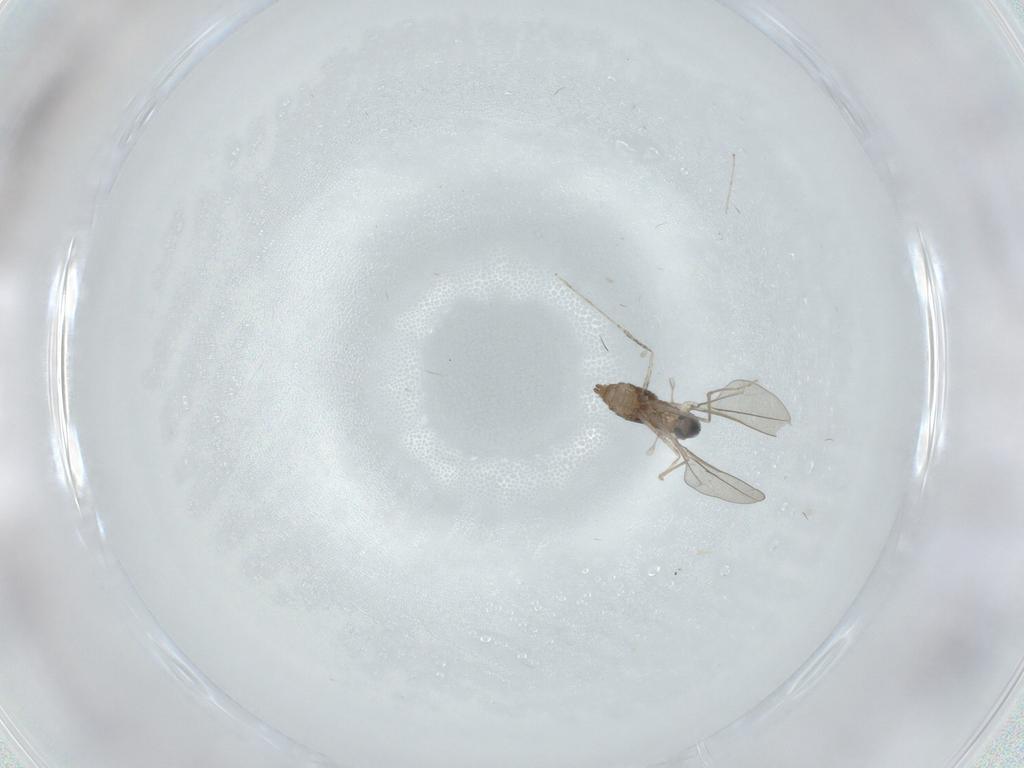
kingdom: Animalia
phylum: Arthropoda
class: Insecta
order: Diptera
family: Cecidomyiidae
